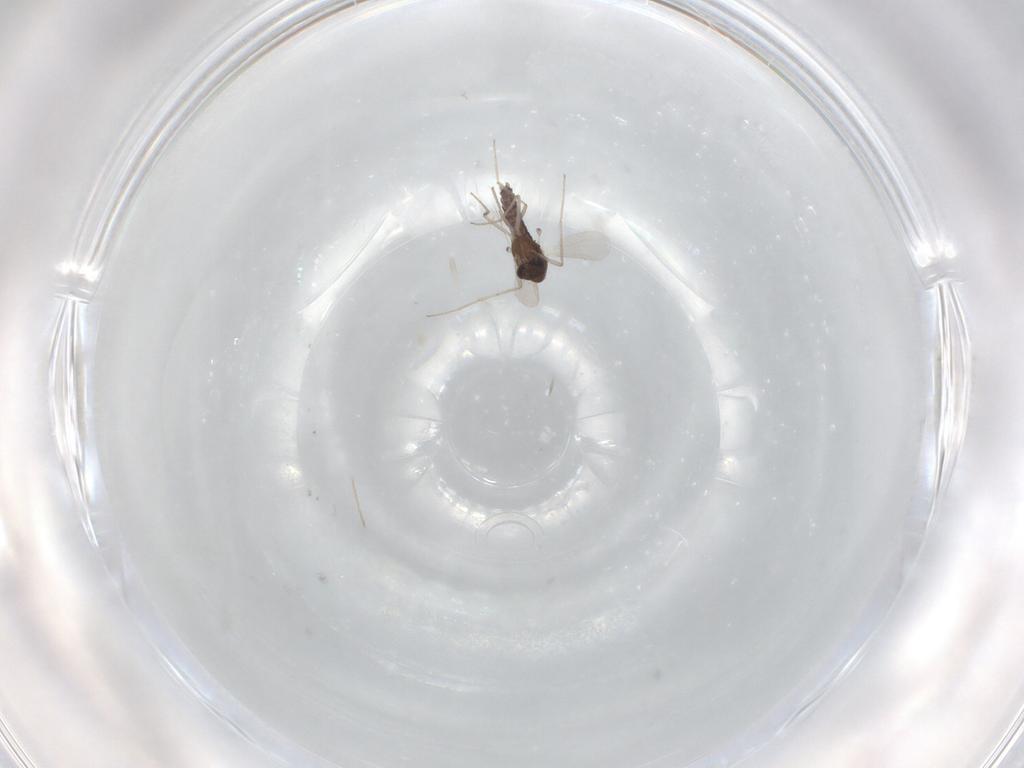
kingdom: Animalia
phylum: Arthropoda
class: Insecta
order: Diptera
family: Chironomidae
